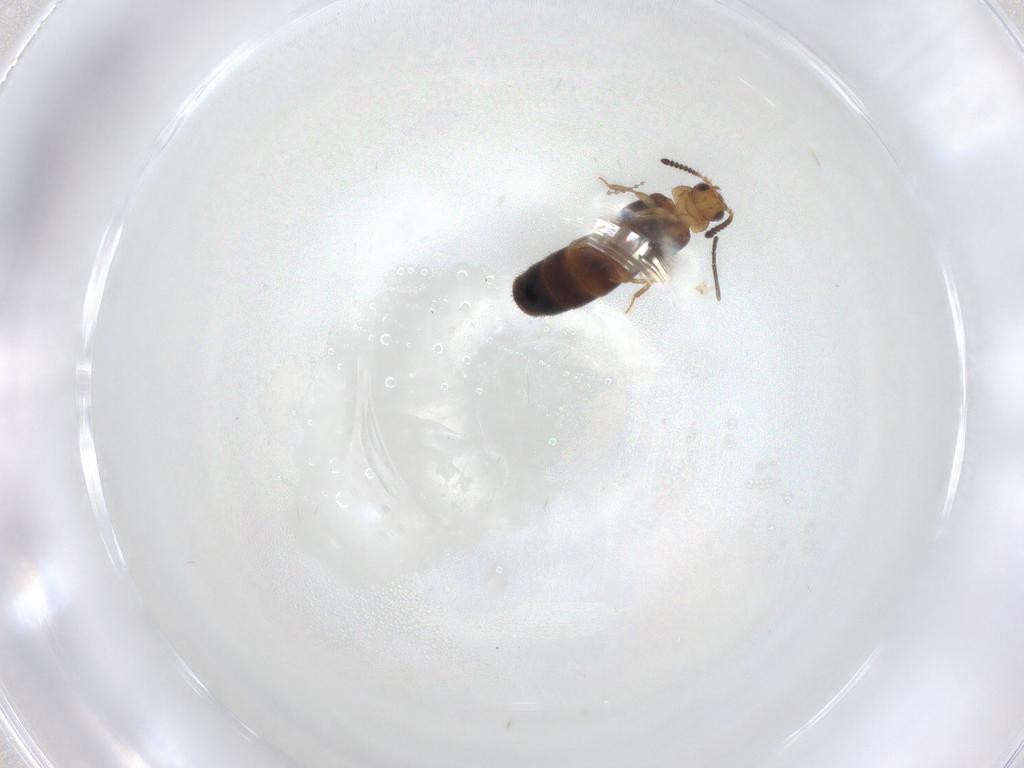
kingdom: Animalia
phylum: Arthropoda
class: Insecta
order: Coleoptera
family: Staphylinidae
